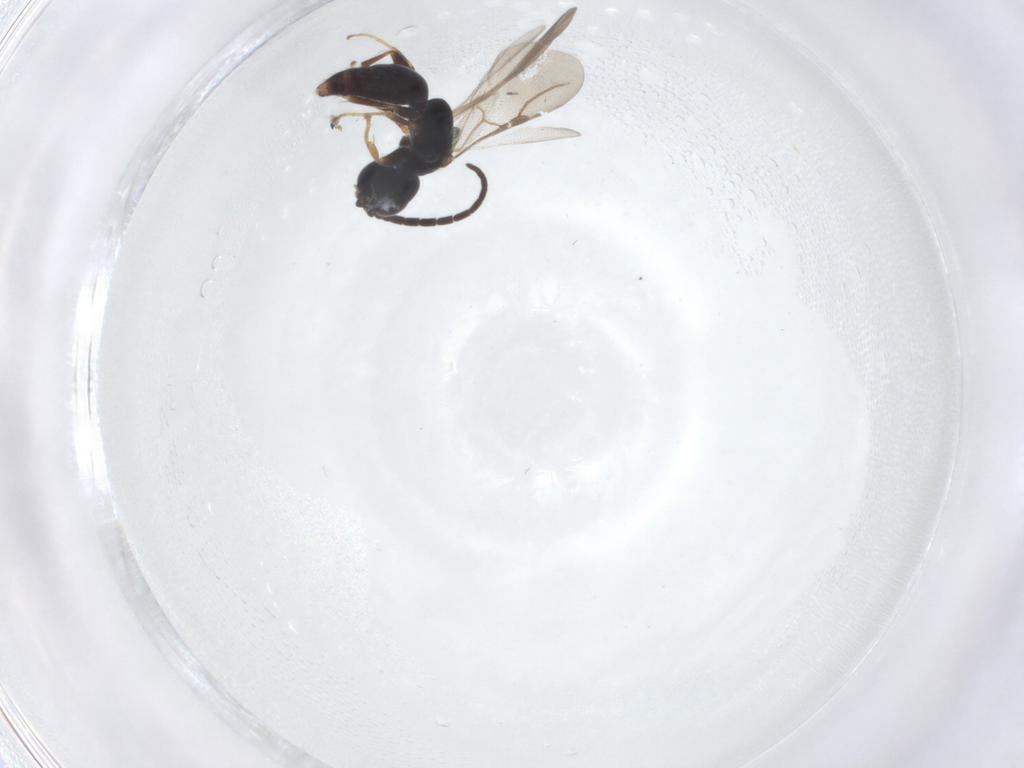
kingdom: Animalia
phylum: Arthropoda
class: Insecta
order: Hymenoptera
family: Bethylidae
